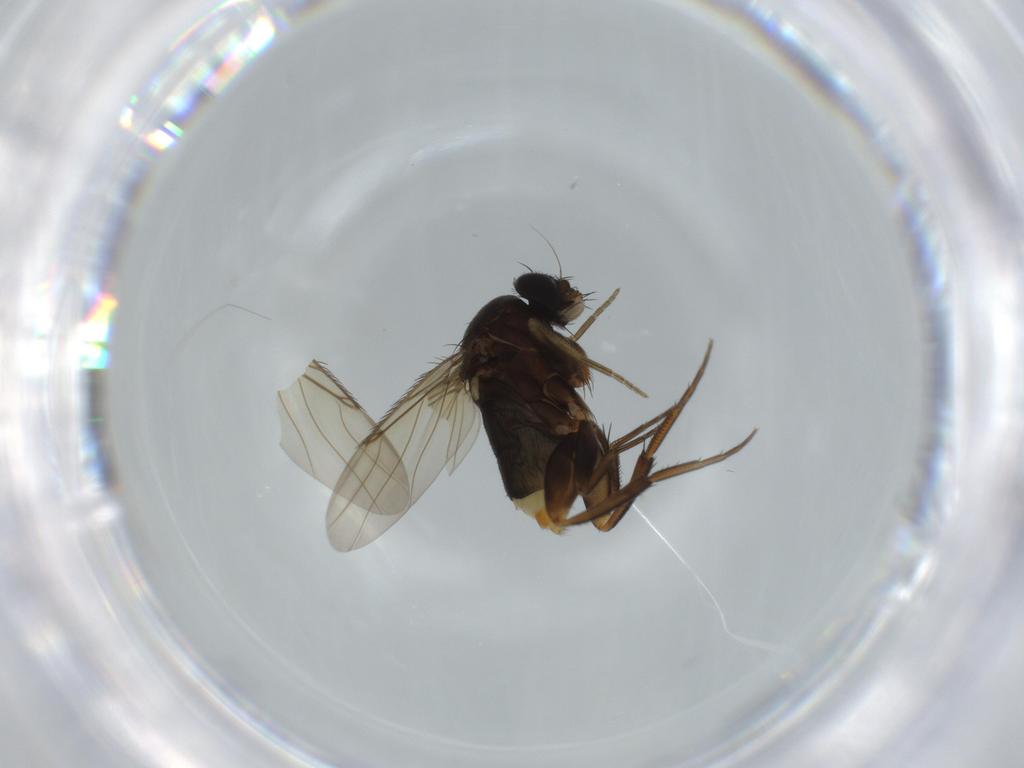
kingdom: Animalia
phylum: Arthropoda
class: Insecta
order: Diptera
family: Phoridae
